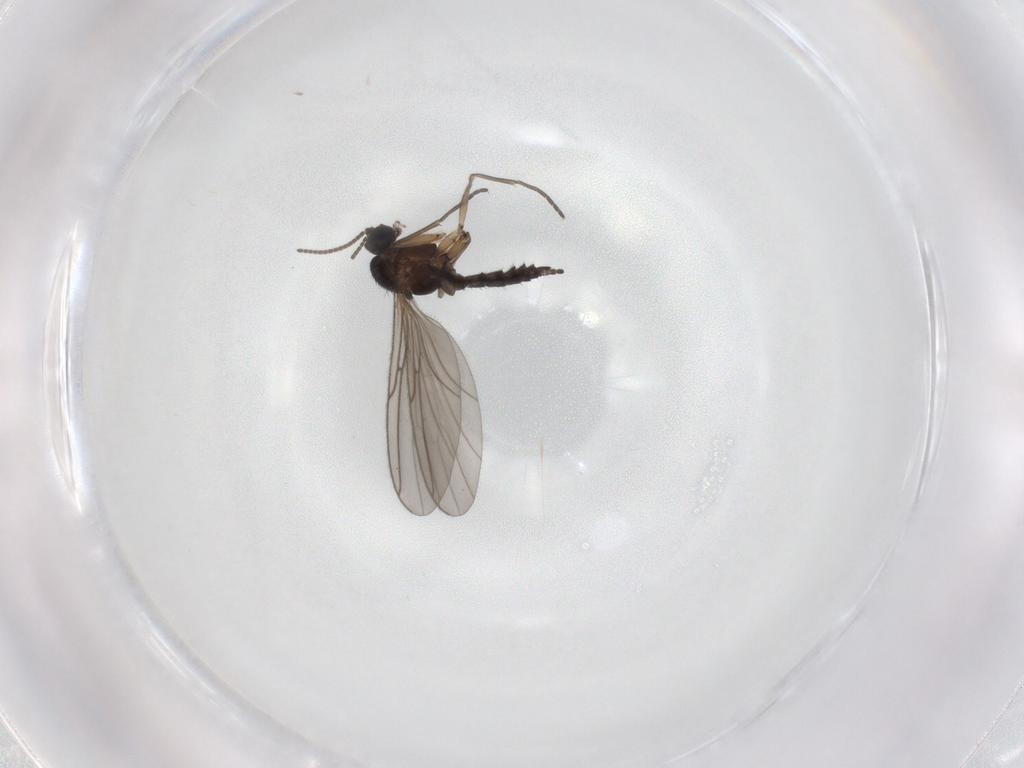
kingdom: Animalia
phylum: Arthropoda
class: Insecta
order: Diptera
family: Sciaridae
